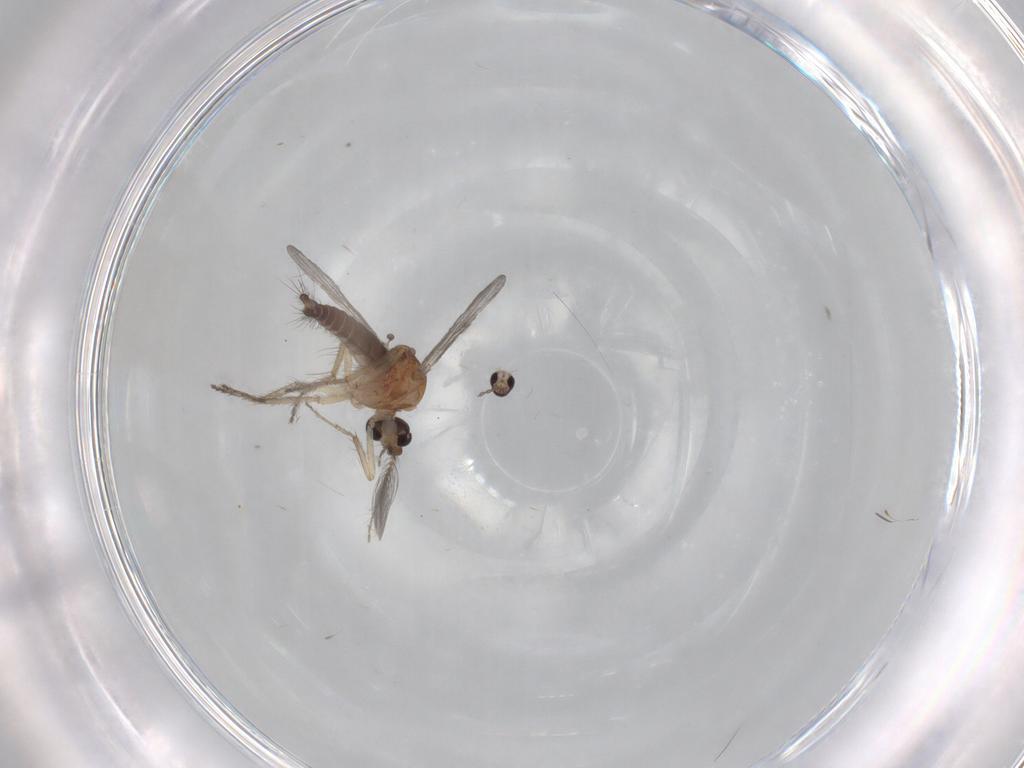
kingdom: Animalia
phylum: Arthropoda
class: Insecta
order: Diptera
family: Cecidomyiidae
